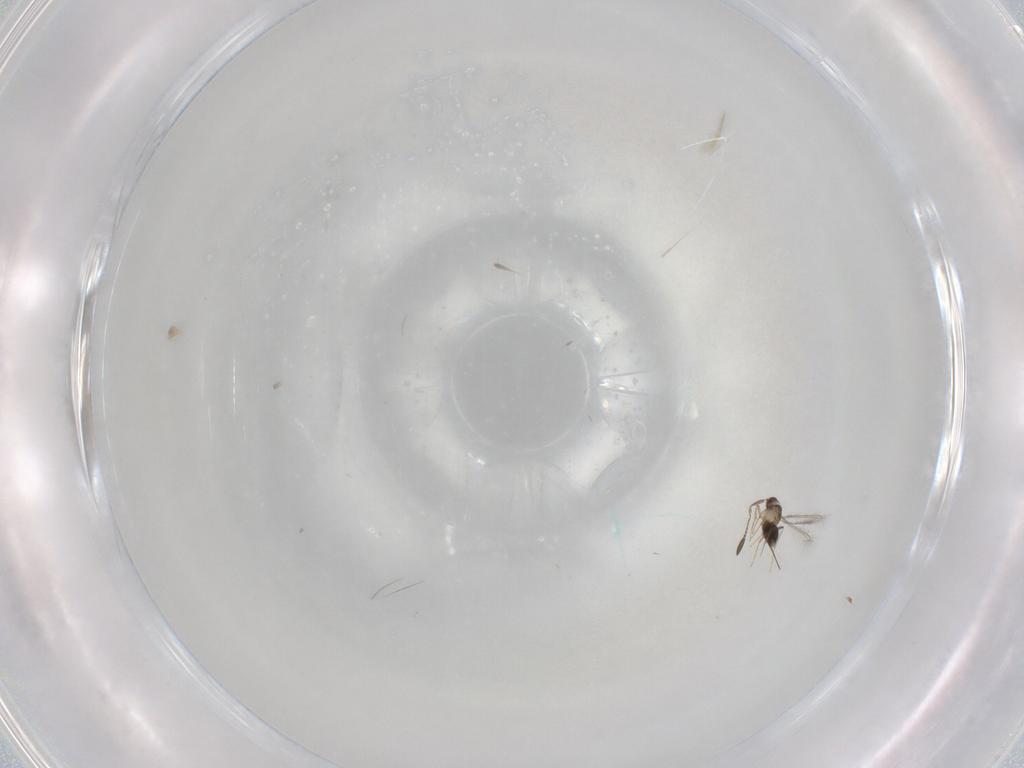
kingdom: Animalia
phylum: Arthropoda
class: Insecta
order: Hymenoptera
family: Mymaridae
